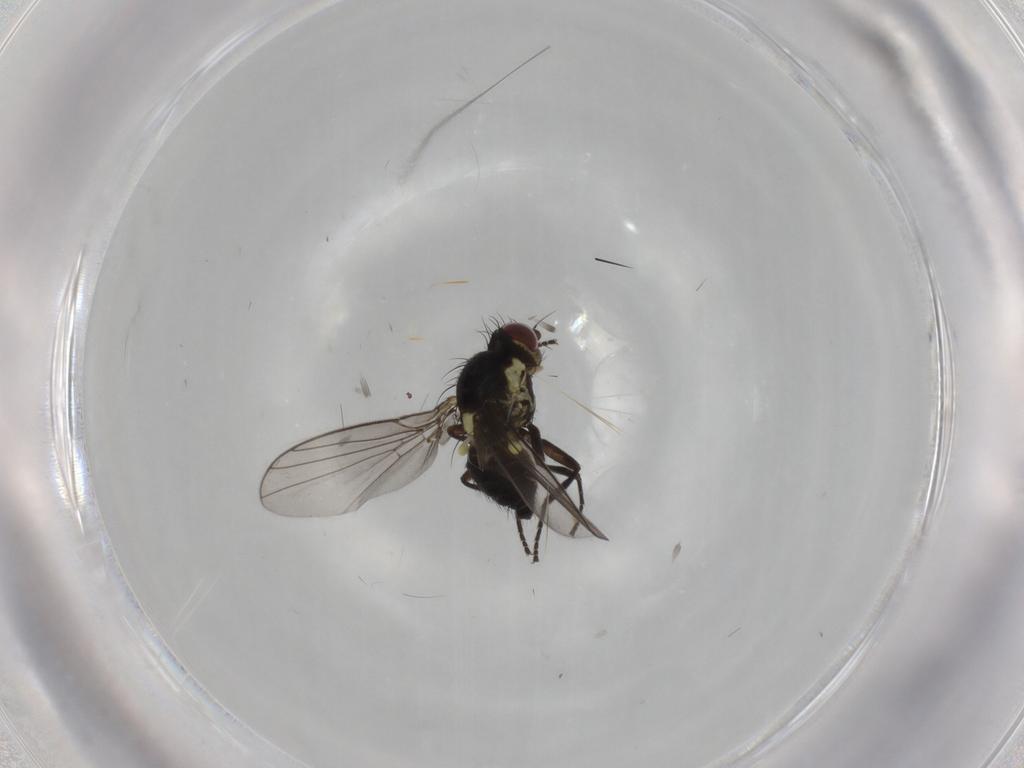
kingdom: Animalia
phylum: Arthropoda
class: Insecta
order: Diptera
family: Agromyzidae
